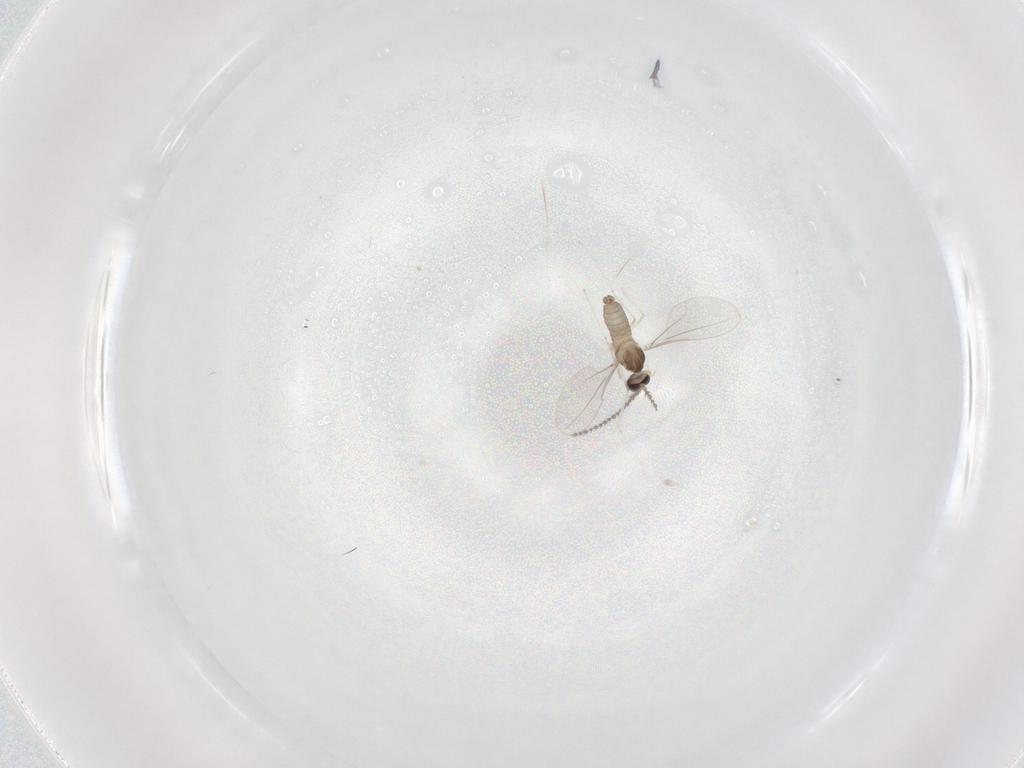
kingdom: Animalia
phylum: Arthropoda
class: Insecta
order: Diptera
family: Cecidomyiidae
